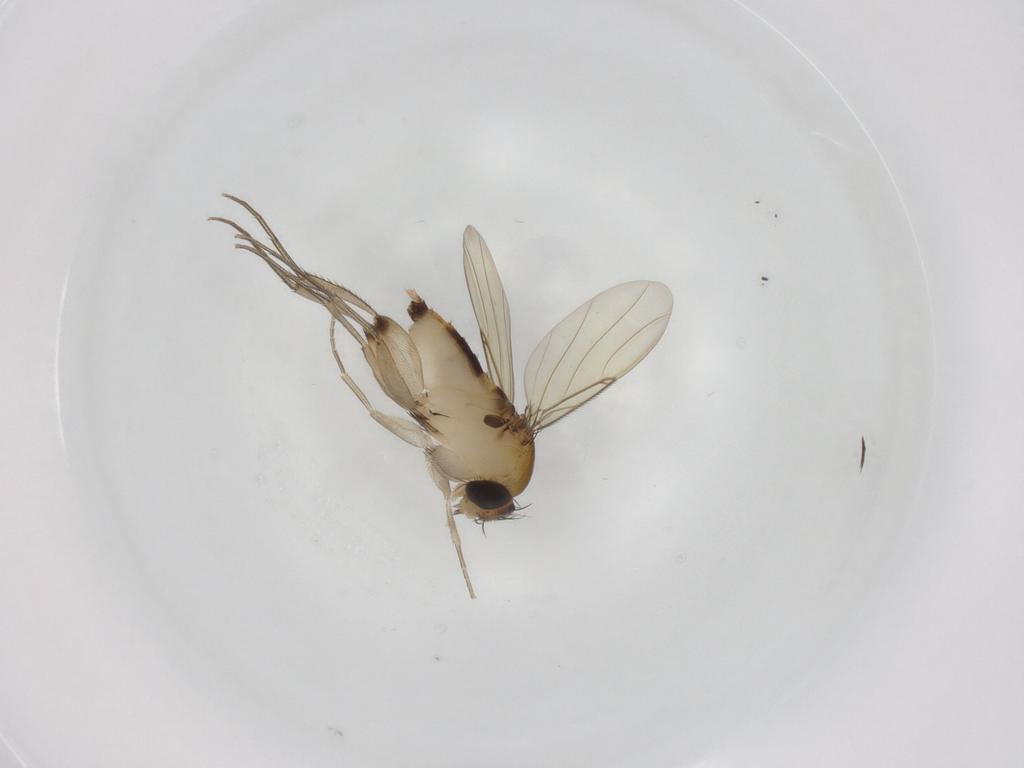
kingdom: Animalia
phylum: Arthropoda
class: Insecta
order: Diptera
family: Phoridae
